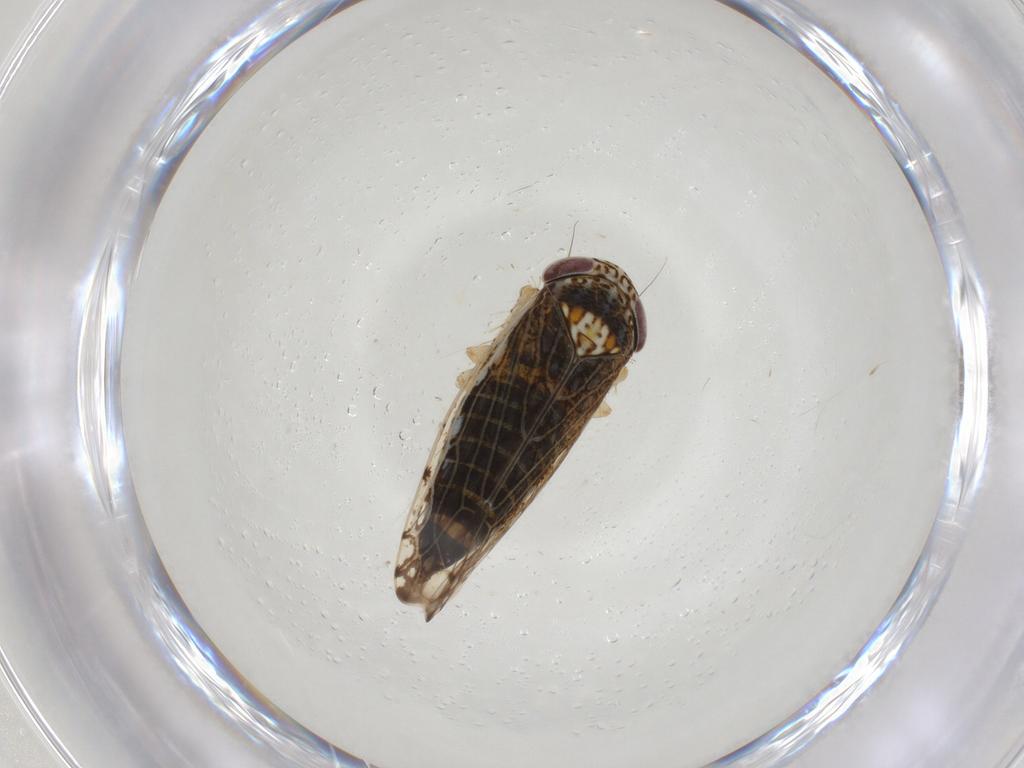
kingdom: Animalia
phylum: Arthropoda
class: Insecta
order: Hemiptera
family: Cicadellidae
